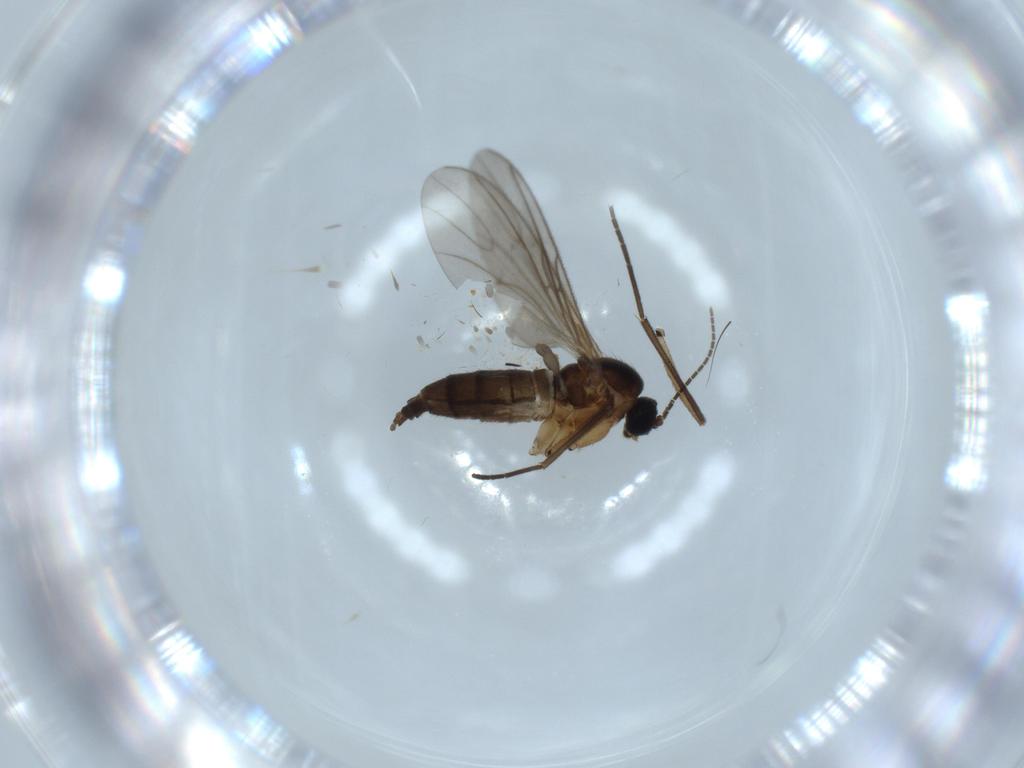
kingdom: Animalia
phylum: Arthropoda
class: Insecta
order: Diptera
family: Sciaridae
